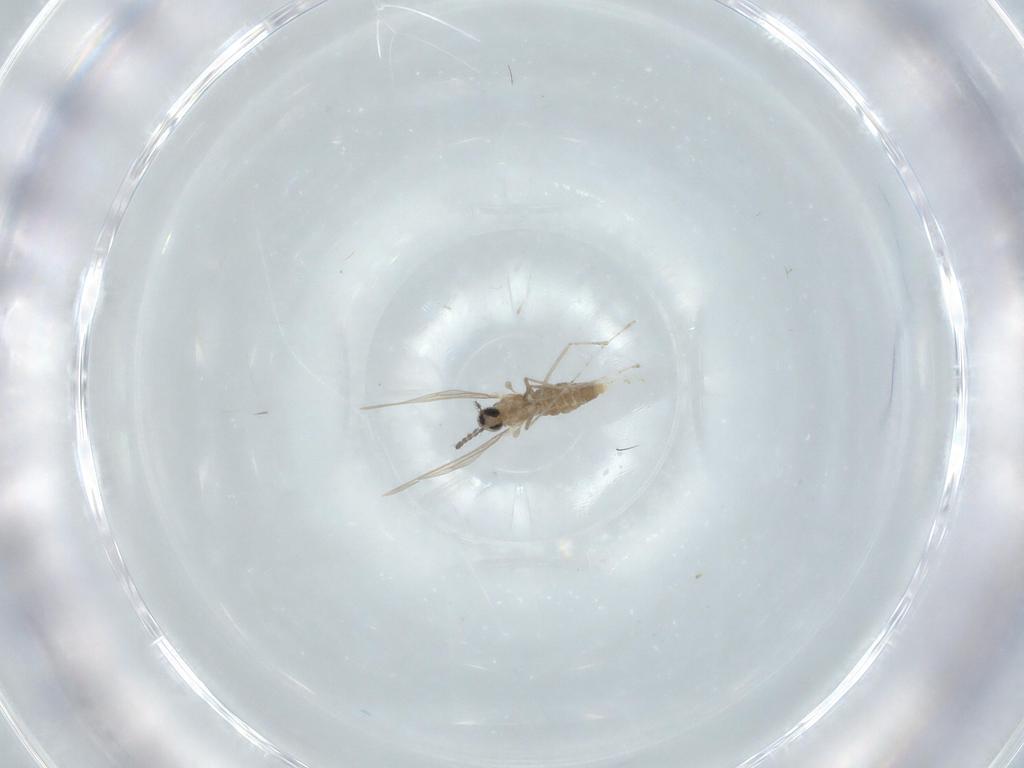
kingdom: Animalia
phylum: Arthropoda
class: Insecta
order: Diptera
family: Cecidomyiidae
